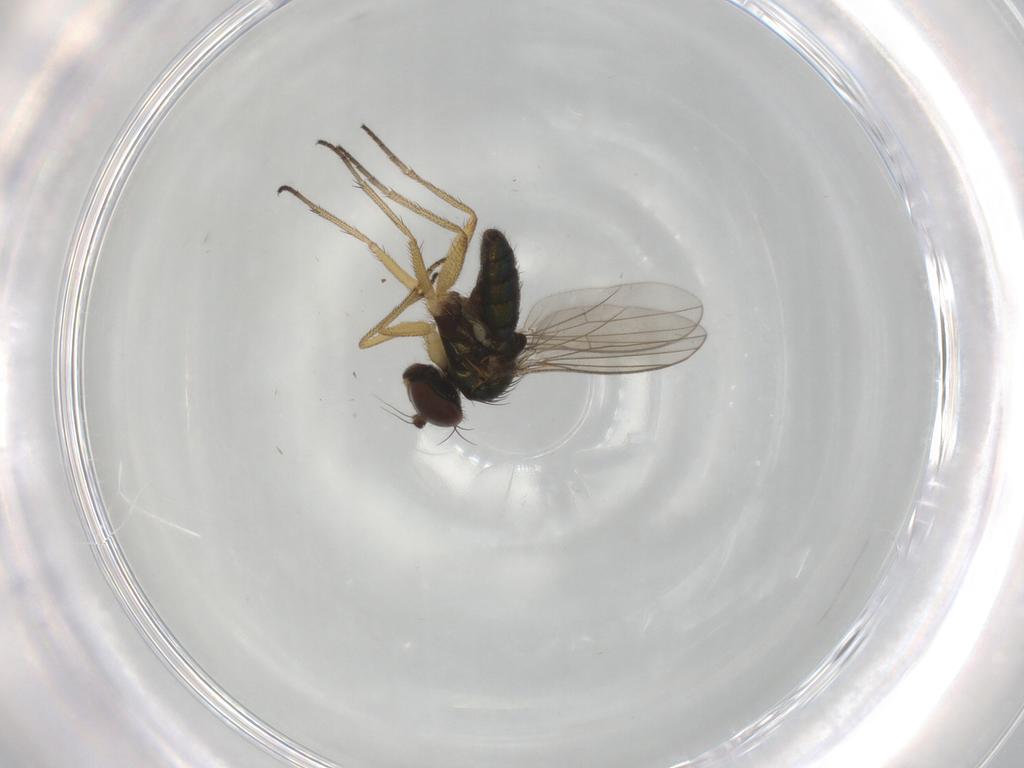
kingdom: Animalia
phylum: Arthropoda
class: Insecta
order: Diptera
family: Dolichopodidae
